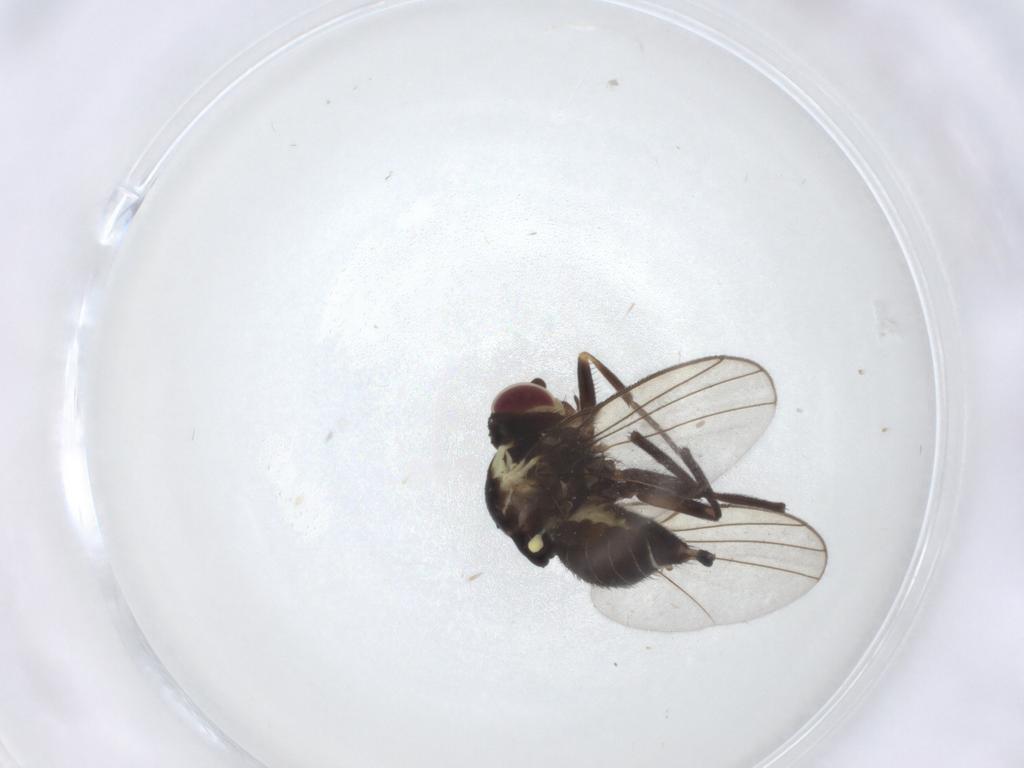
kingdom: Animalia
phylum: Arthropoda
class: Insecta
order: Diptera
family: Agromyzidae
